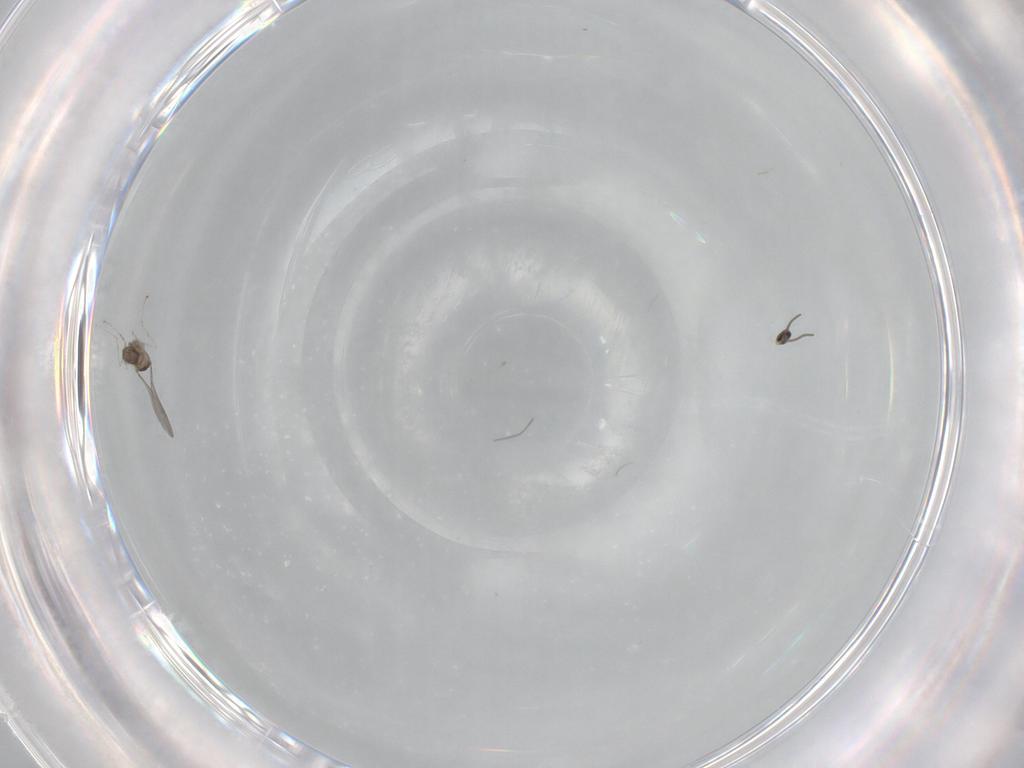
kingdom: Animalia
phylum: Arthropoda
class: Insecta
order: Diptera
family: Cecidomyiidae
